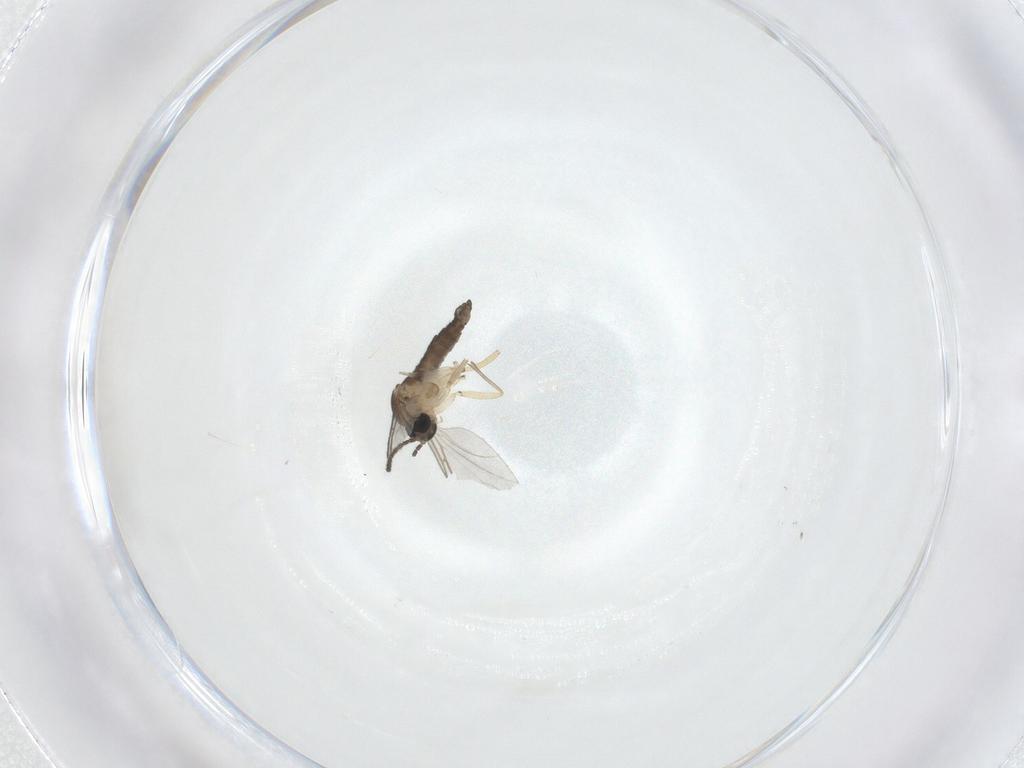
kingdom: Animalia
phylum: Arthropoda
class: Insecta
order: Diptera
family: Sciaridae
